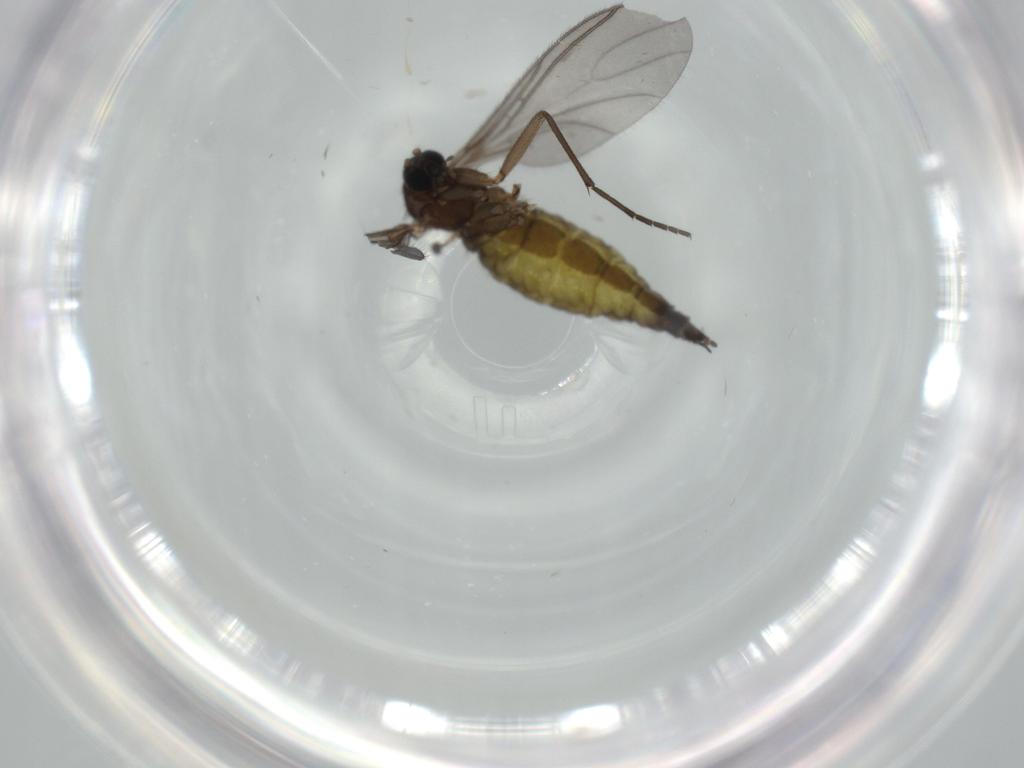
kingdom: Animalia
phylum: Arthropoda
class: Insecta
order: Diptera
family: Sciaridae
